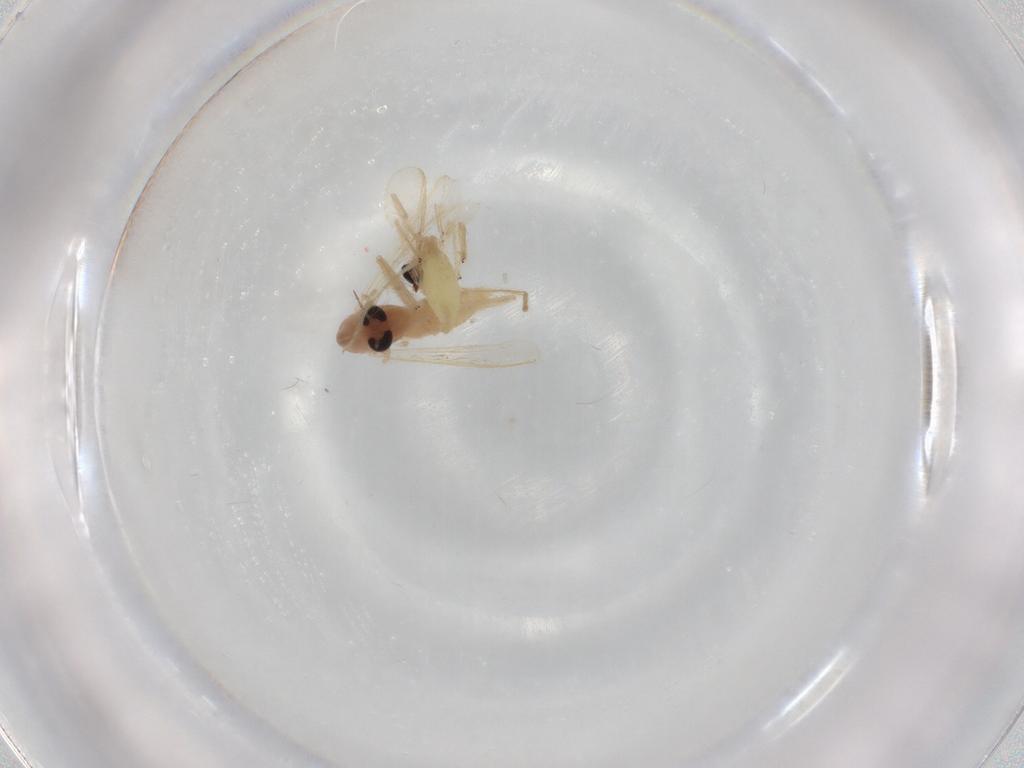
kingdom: Animalia
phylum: Arthropoda
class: Insecta
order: Diptera
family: Chironomidae
